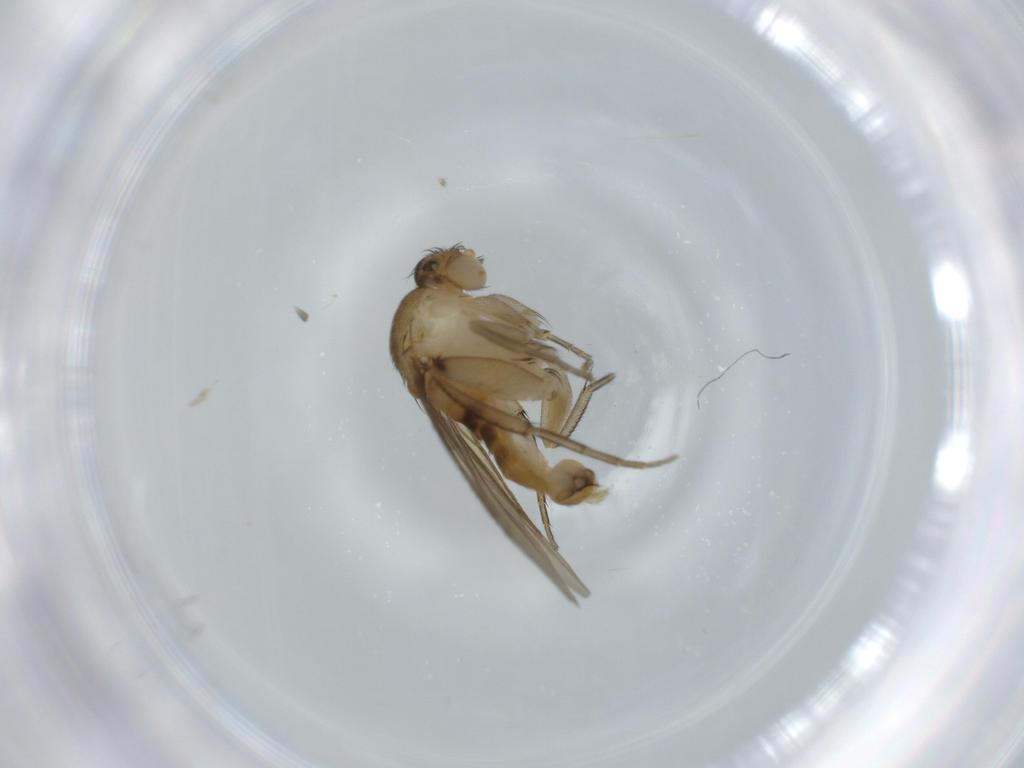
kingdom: Animalia
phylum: Arthropoda
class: Insecta
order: Diptera
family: Phoridae
